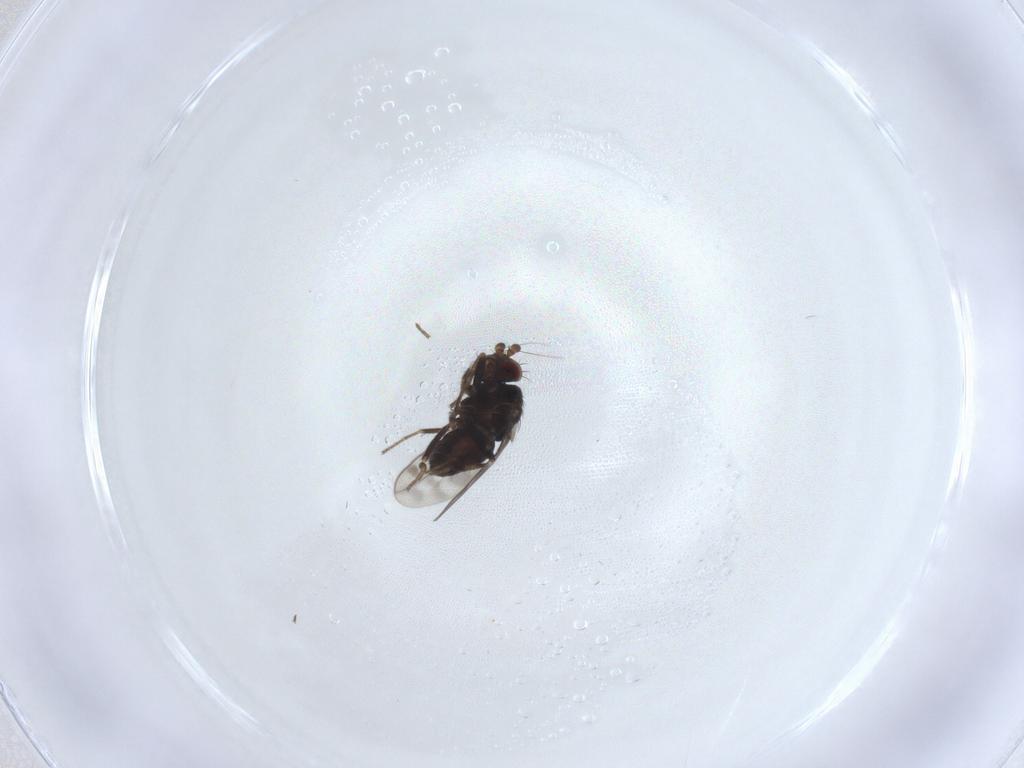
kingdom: Animalia
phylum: Arthropoda
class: Insecta
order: Diptera
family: Sphaeroceridae
